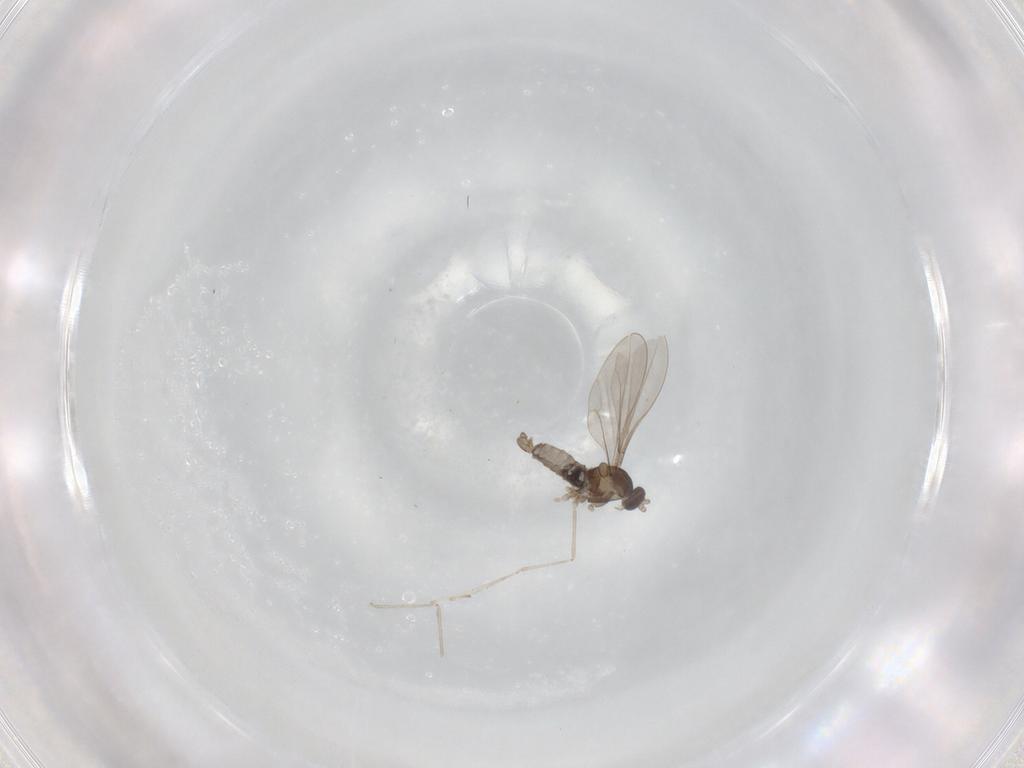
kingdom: Animalia
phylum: Arthropoda
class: Insecta
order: Diptera
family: Cecidomyiidae
